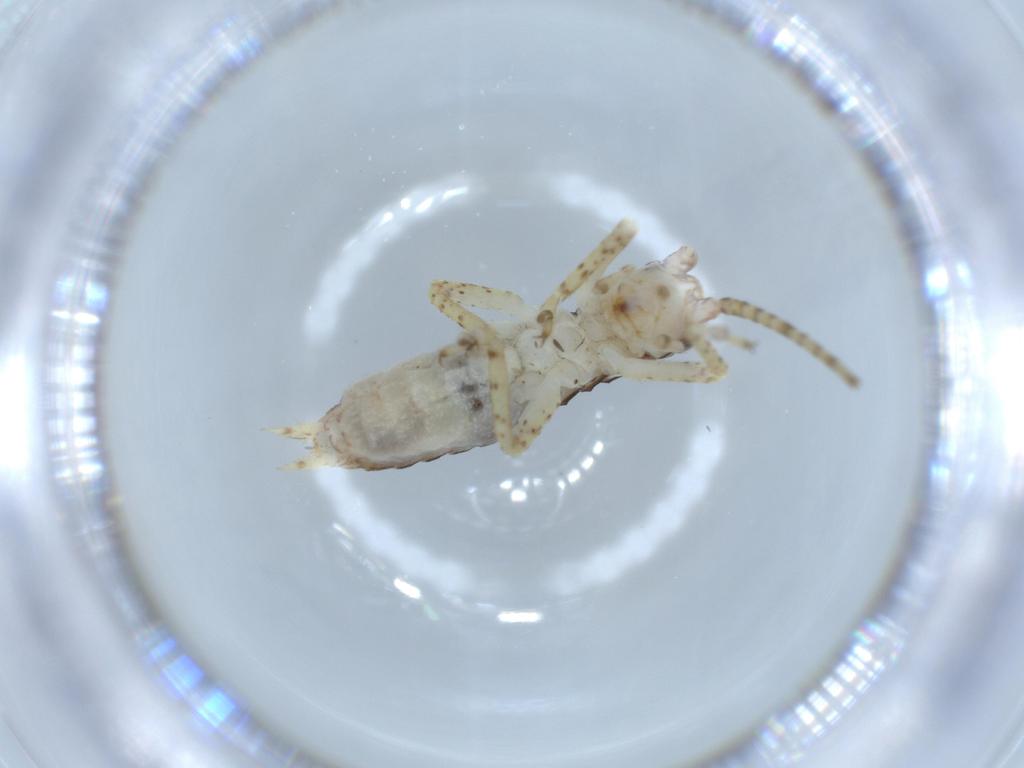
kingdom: Animalia
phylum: Arthropoda
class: Insecta
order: Orthoptera
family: Gryllidae
